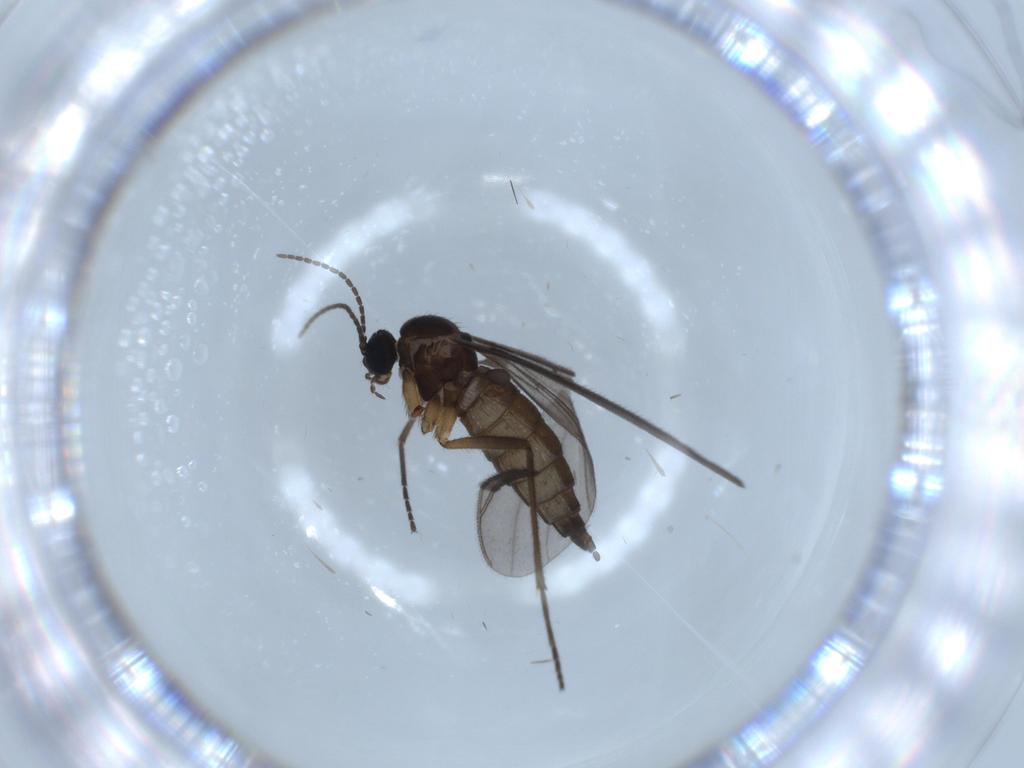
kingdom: Animalia
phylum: Arthropoda
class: Insecta
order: Diptera
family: Sciaridae
